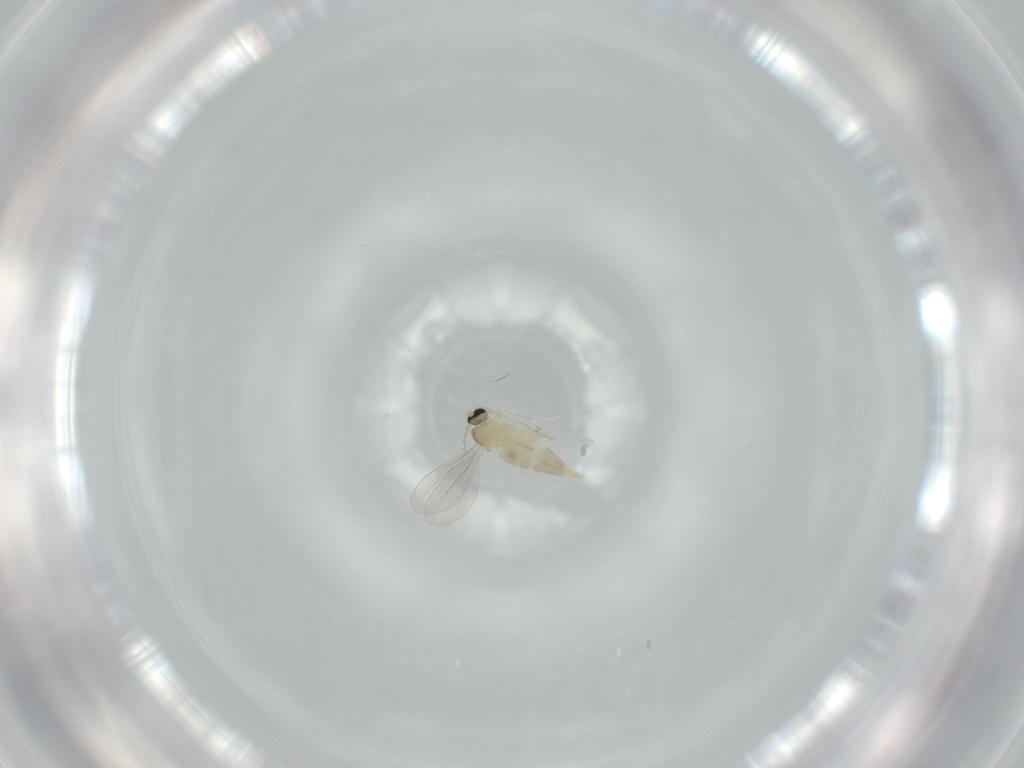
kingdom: Animalia
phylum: Arthropoda
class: Insecta
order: Diptera
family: Cecidomyiidae
